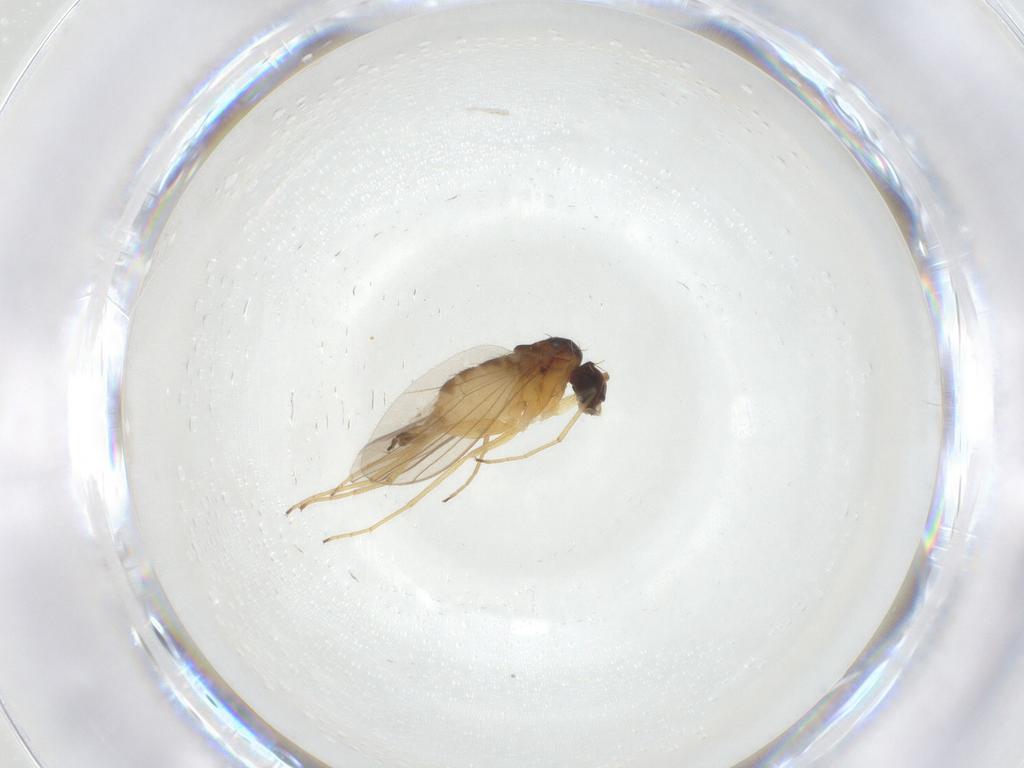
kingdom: Animalia
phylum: Arthropoda
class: Insecta
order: Diptera
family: Dolichopodidae
